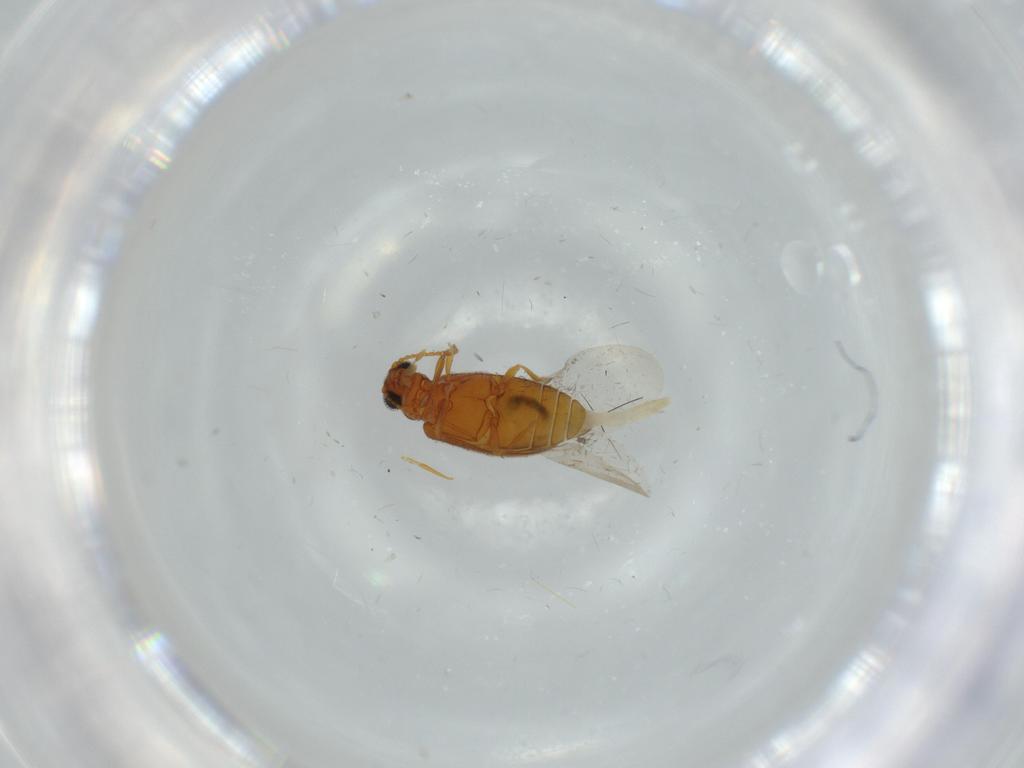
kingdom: Animalia
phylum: Arthropoda
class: Insecta
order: Coleoptera
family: Aderidae
